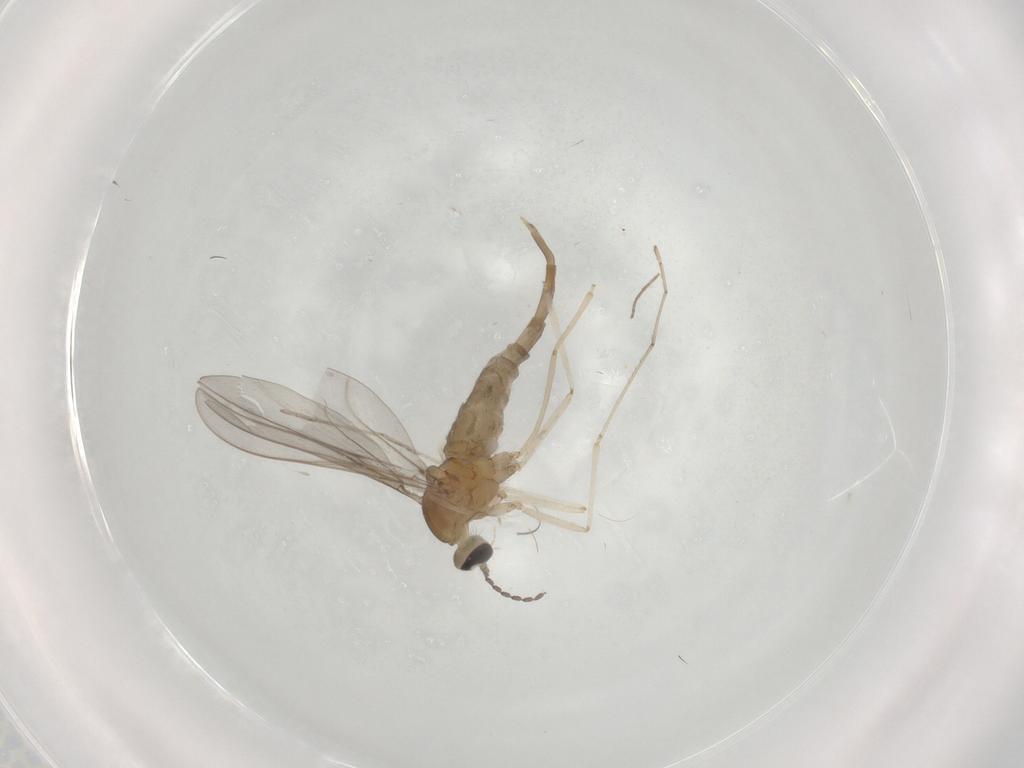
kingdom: Animalia
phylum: Arthropoda
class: Insecta
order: Diptera
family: Cecidomyiidae
